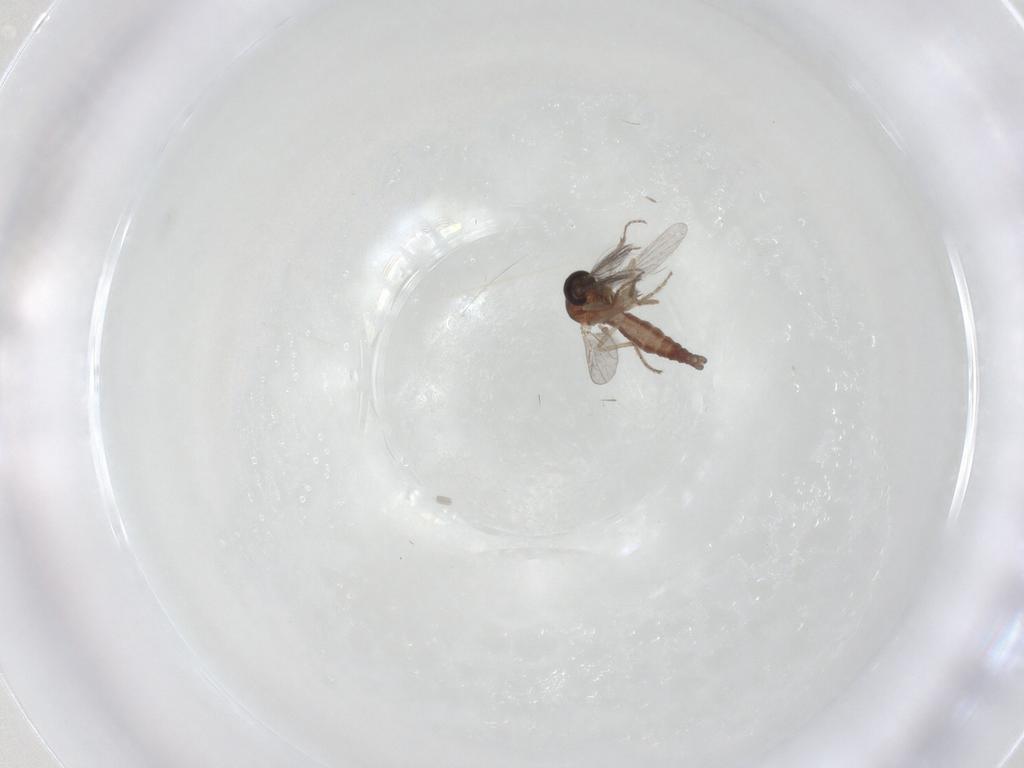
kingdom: Animalia
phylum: Arthropoda
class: Insecta
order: Diptera
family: Ceratopogonidae
